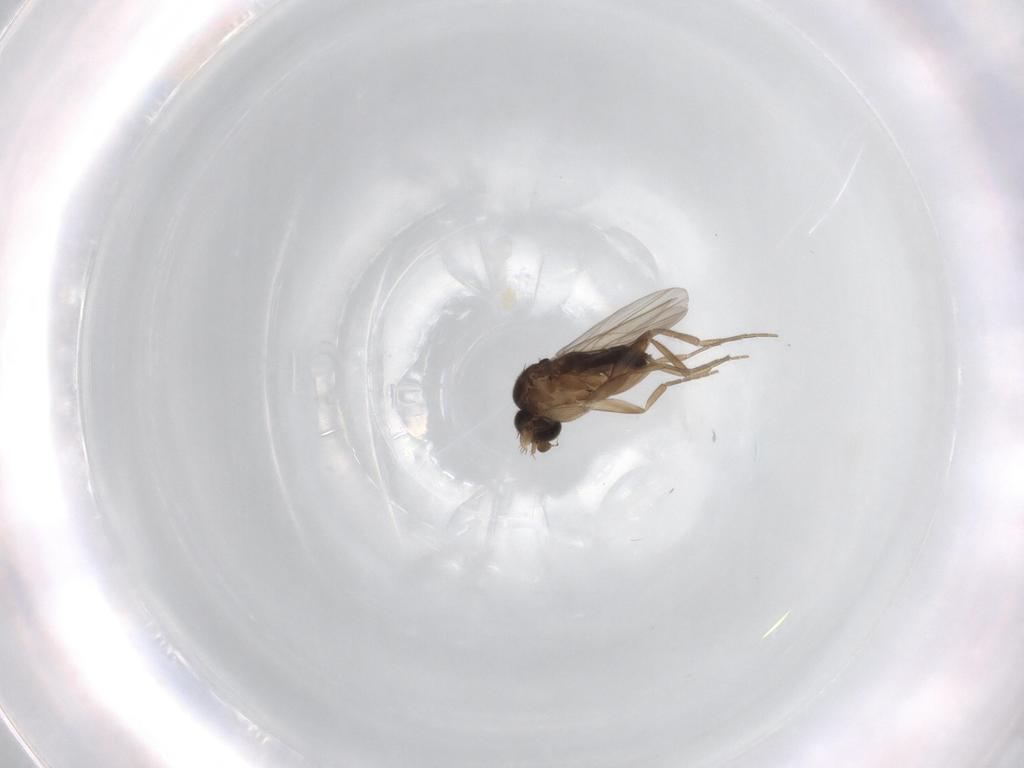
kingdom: Animalia
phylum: Arthropoda
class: Insecta
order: Diptera
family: Phoridae
